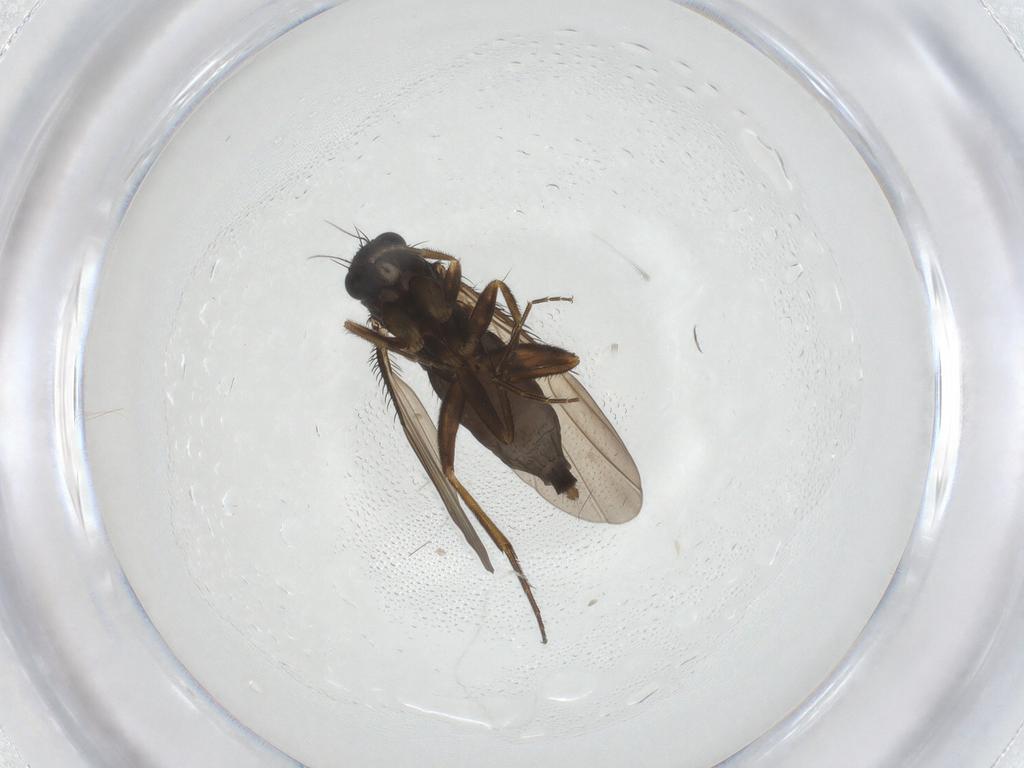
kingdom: Animalia
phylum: Arthropoda
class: Insecta
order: Diptera
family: Phoridae
